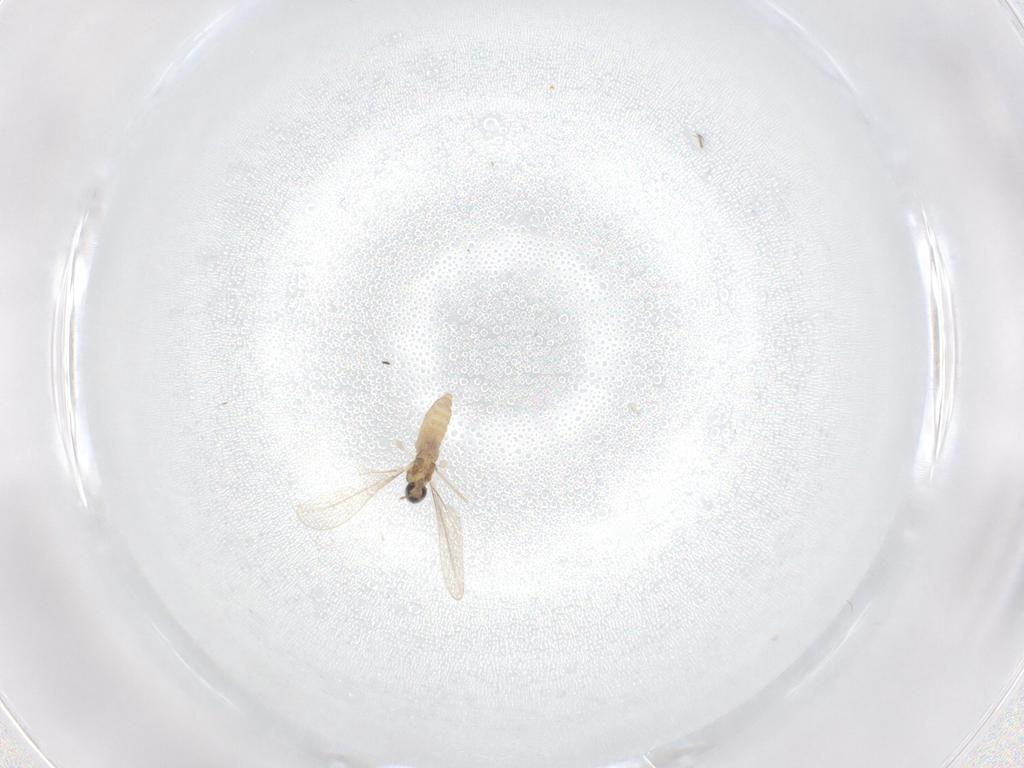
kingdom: Animalia
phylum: Arthropoda
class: Insecta
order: Diptera
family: Cecidomyiidae
